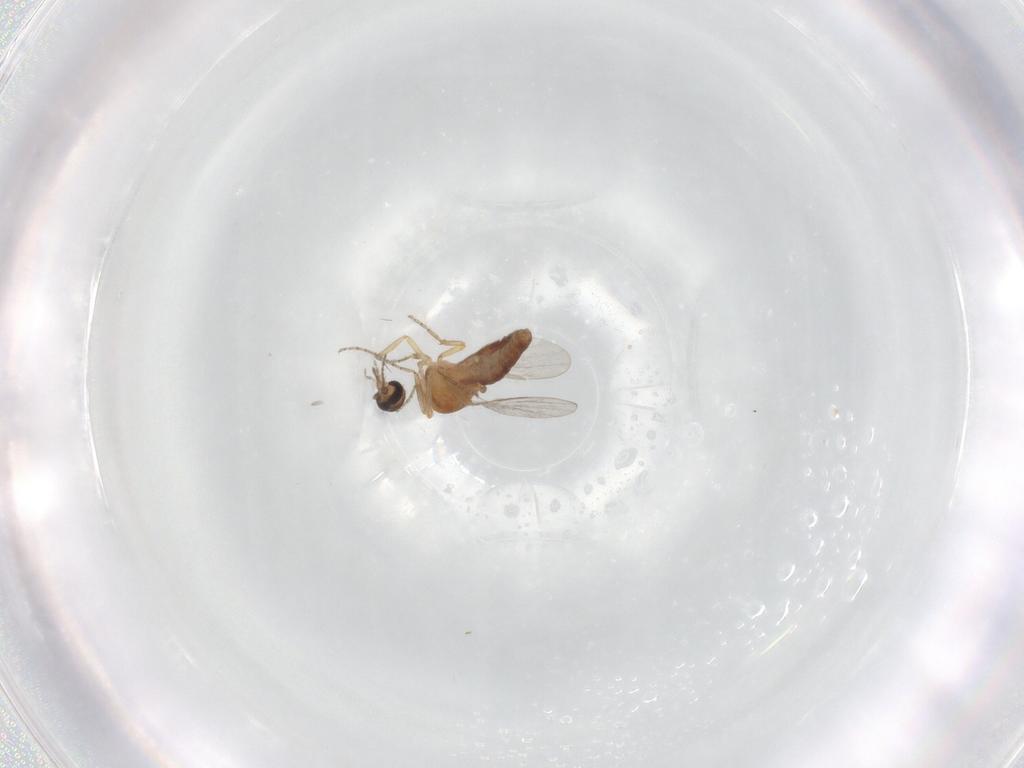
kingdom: Animalia
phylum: Arthropoda
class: Insecta
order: Diptera
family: Ceratopogonidae
